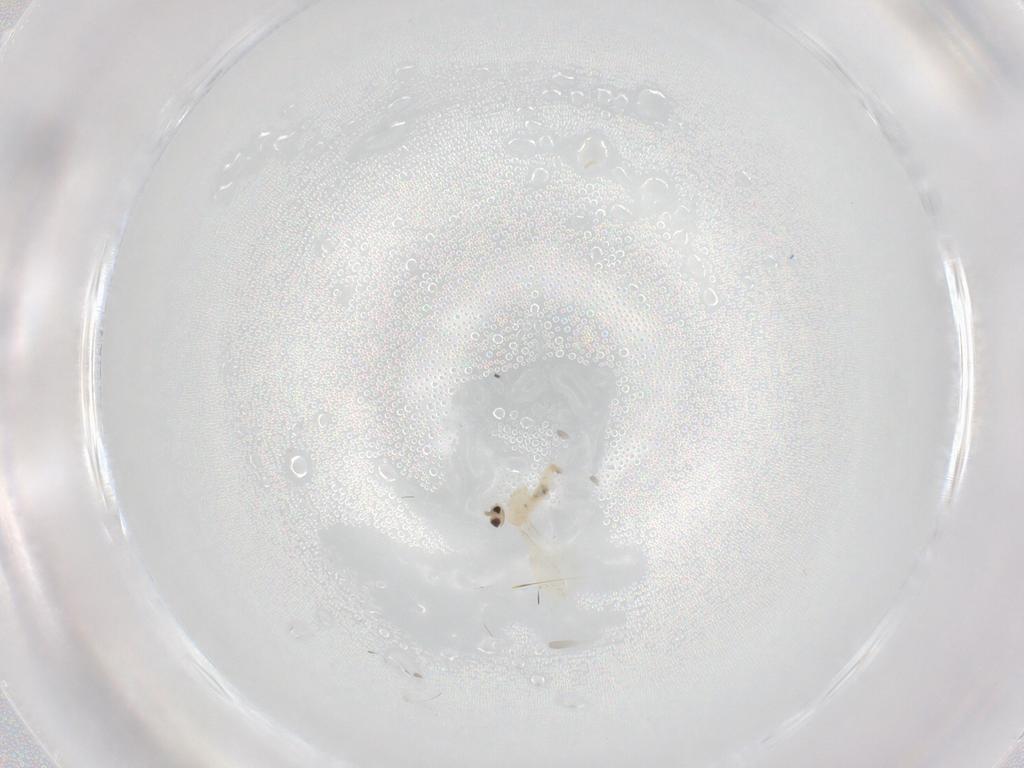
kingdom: Animalia
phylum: Arthropoda
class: Insecta
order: Diptera
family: Cecidomyiidae
